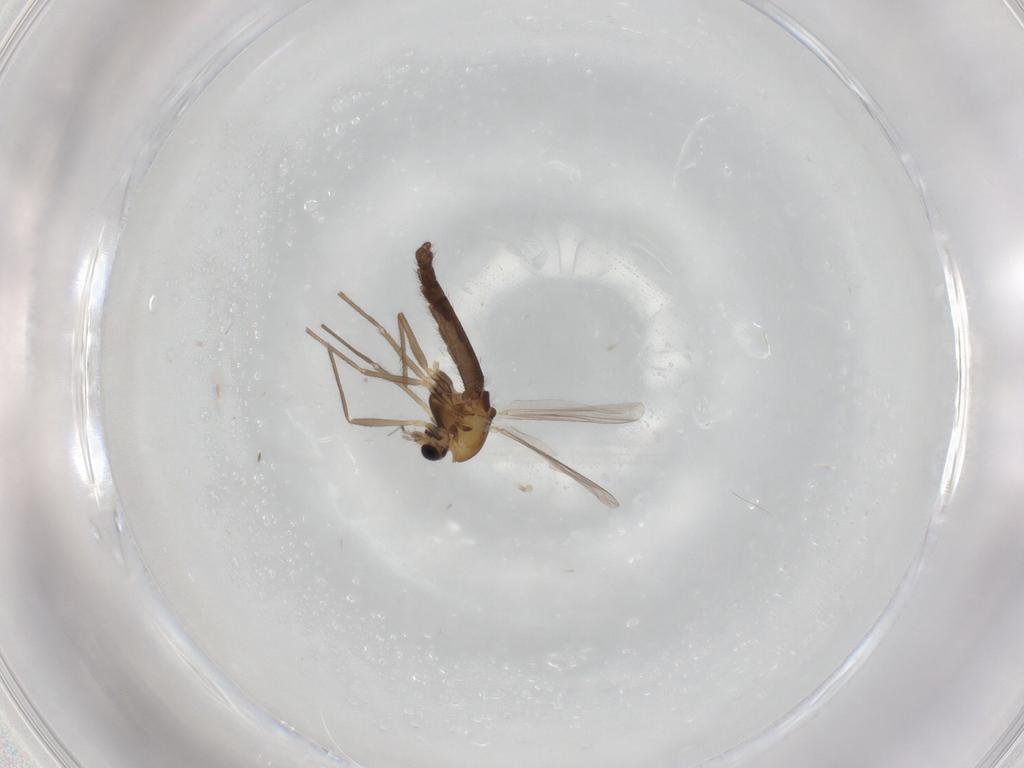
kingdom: Animalia
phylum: Arthropoda
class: Insecta
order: Diptera
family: Chironomidae
